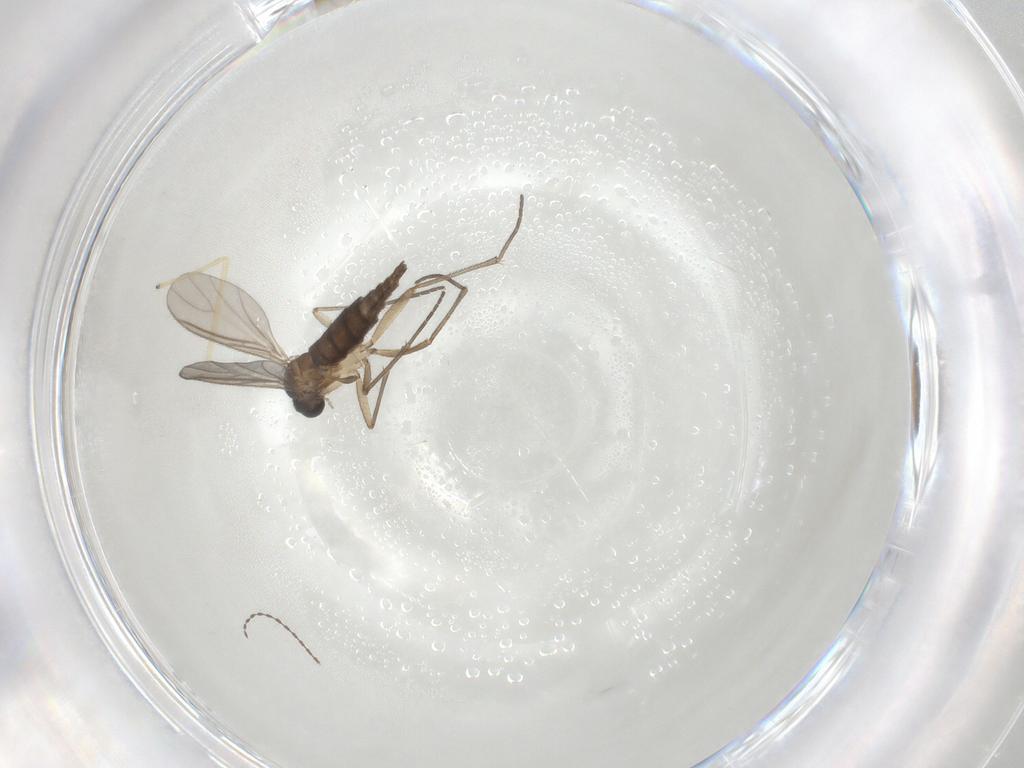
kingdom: Animalia
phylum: Arthropoda
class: Insecta
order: Diptera
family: Sciaridae
